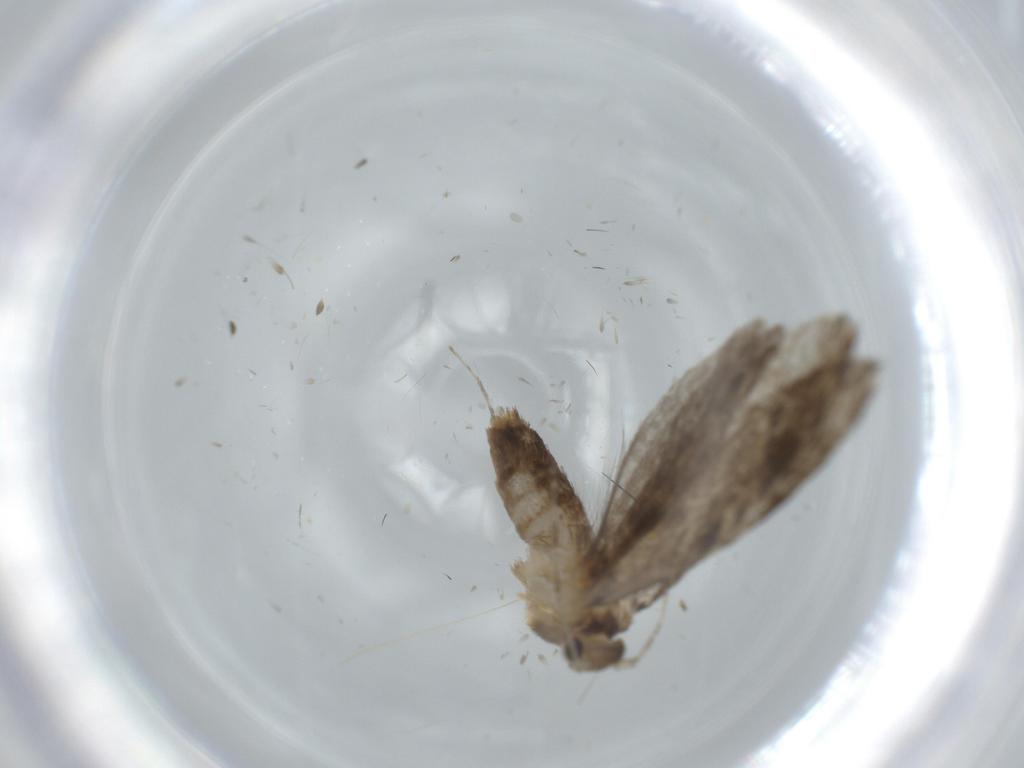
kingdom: Animalia
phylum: Arthropoda
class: Insecta
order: Lepidoptera
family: Tineidae
